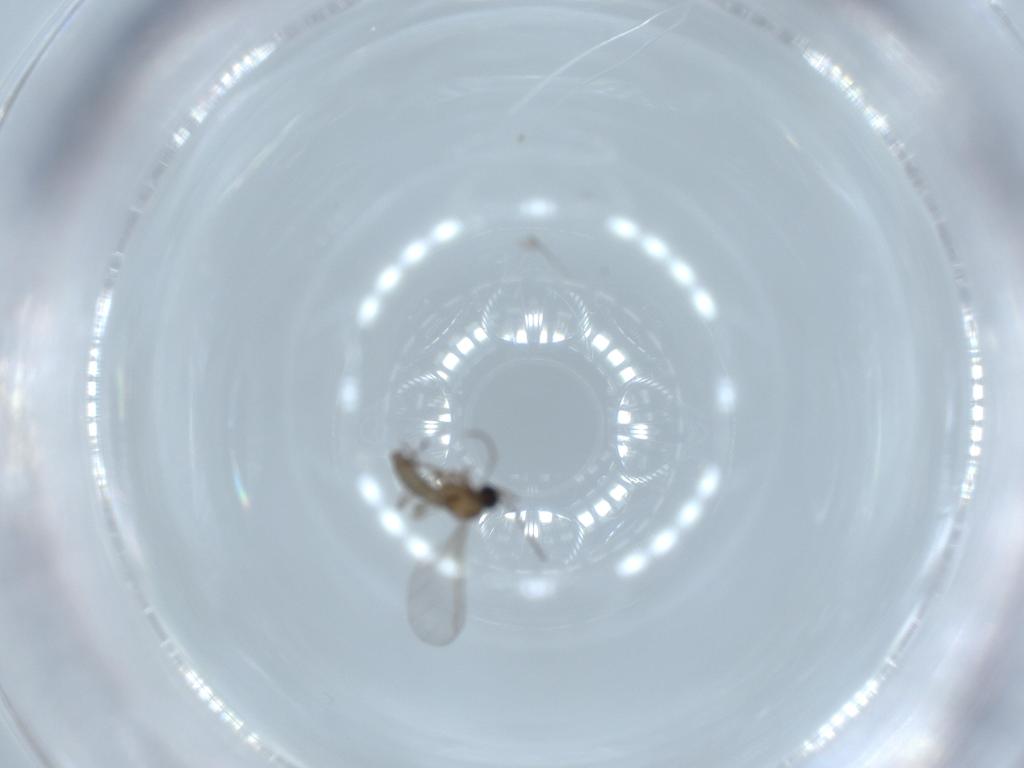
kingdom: Animalia
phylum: Arthropoda
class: Insecta
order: Diptera
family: Sciaridae
